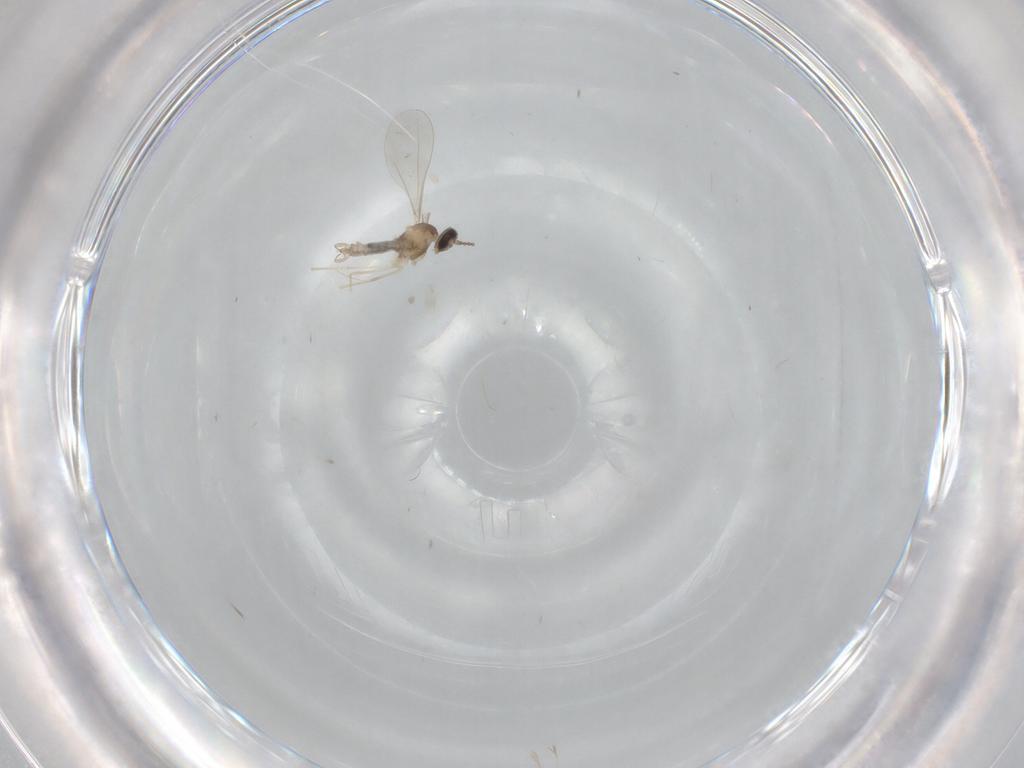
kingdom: Animalia
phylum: Arthropoda
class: Insecta
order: Diptera
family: Cecidomyiidae
